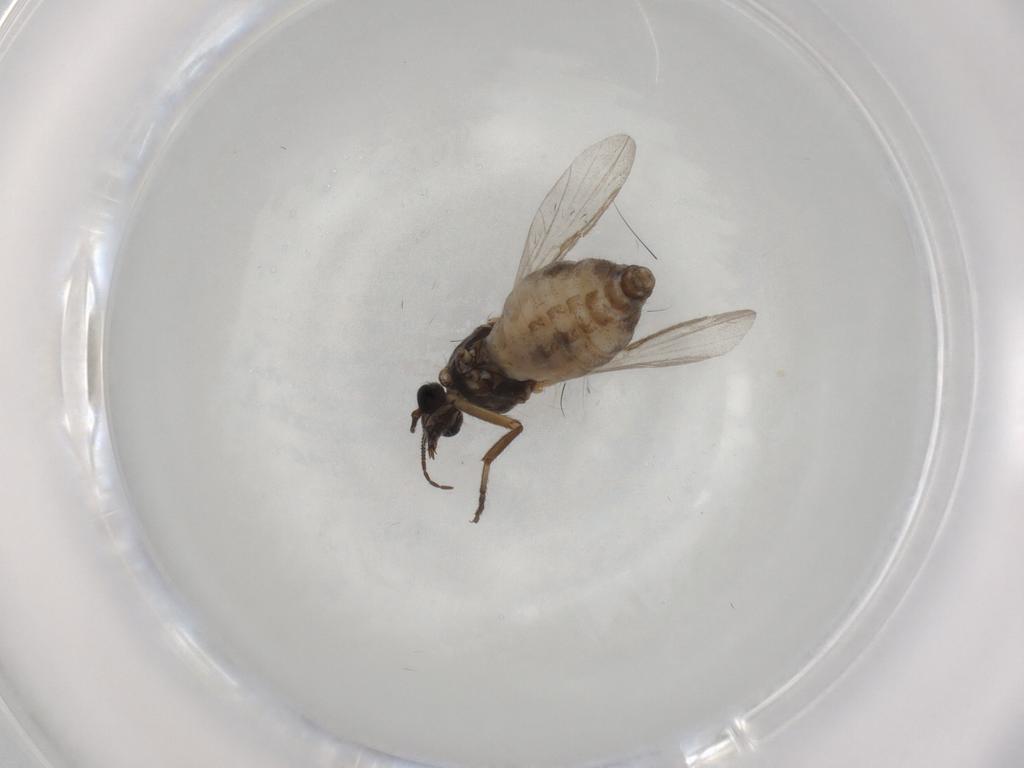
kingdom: Animalia
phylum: Arthropoda
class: Insecta
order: Diptera
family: Ceratopogonidae
